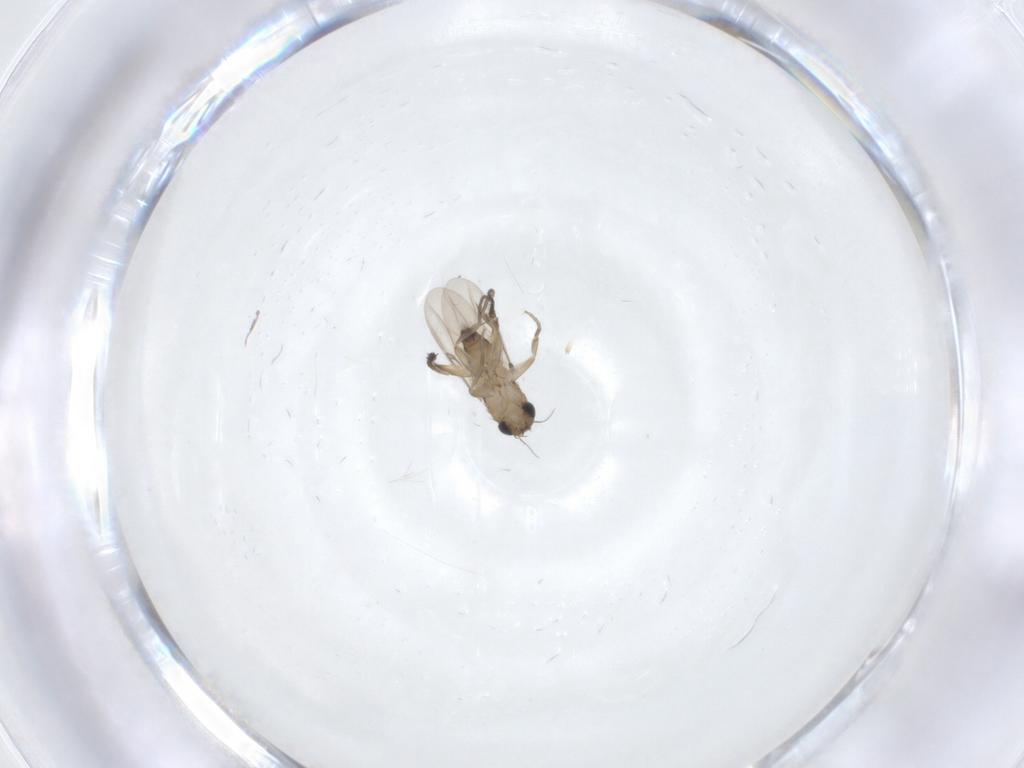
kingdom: Animalia
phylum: Arthropoda
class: Insecta
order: Diptera
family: Phoridae
